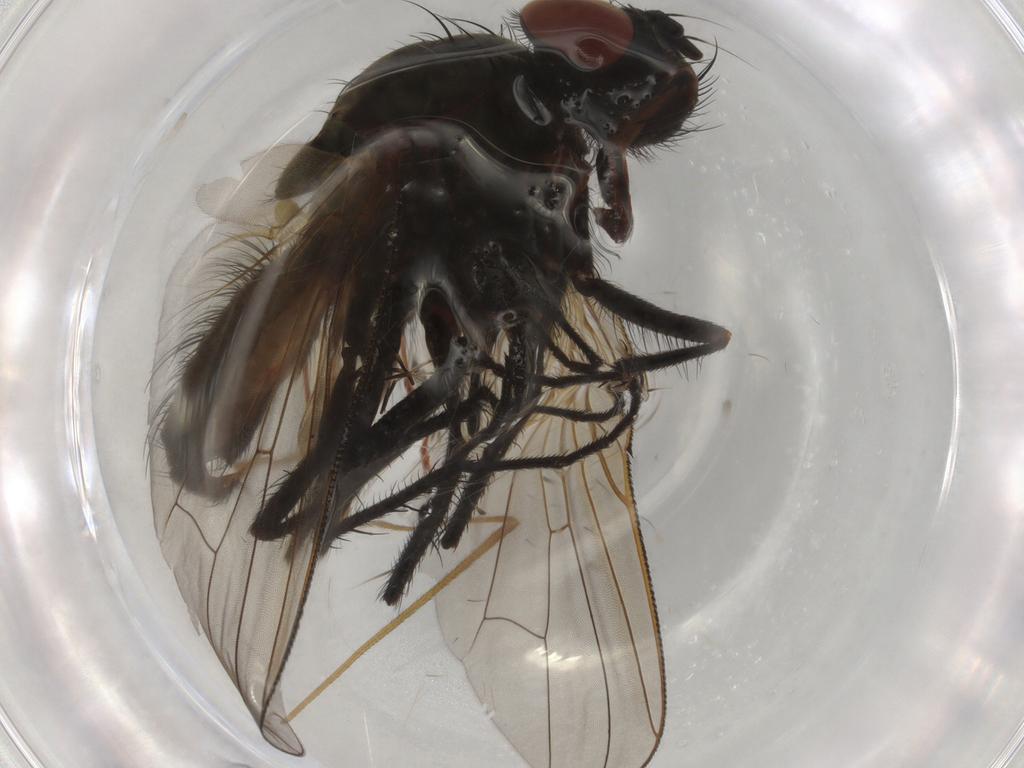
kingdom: Animalia
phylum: Arthropoda
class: Insecta
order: Diptera
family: Anthomyiidae
